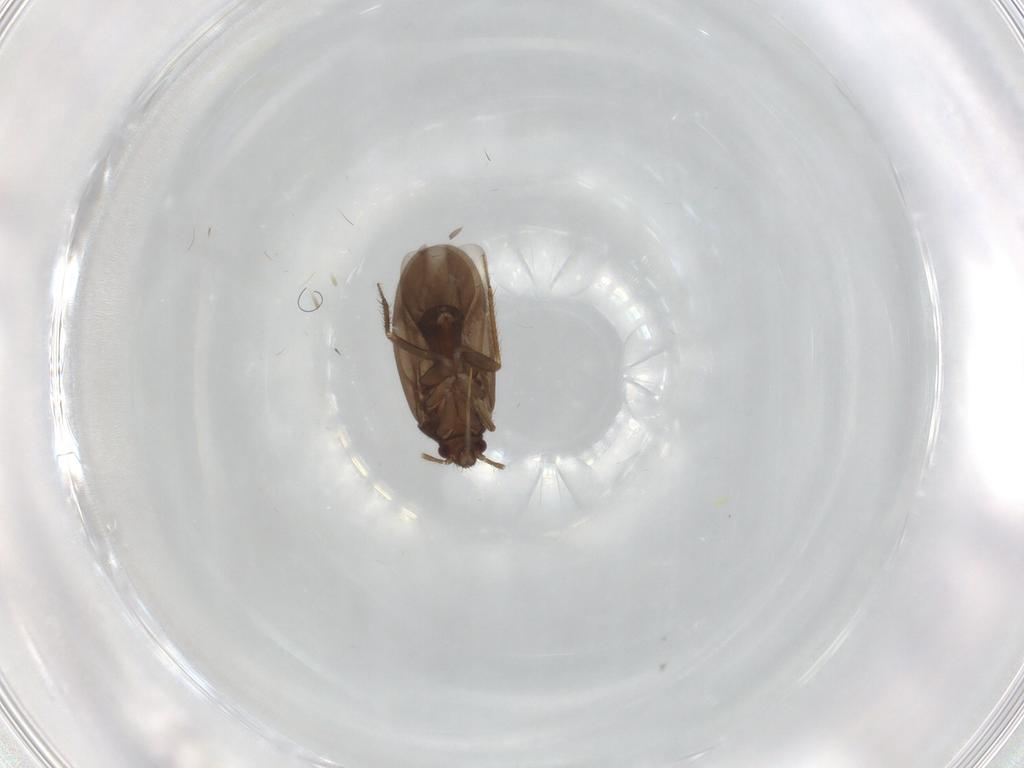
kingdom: Animalia
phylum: Arthropoda
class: Insecta
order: Hemiptera
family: Ceratocombidae
